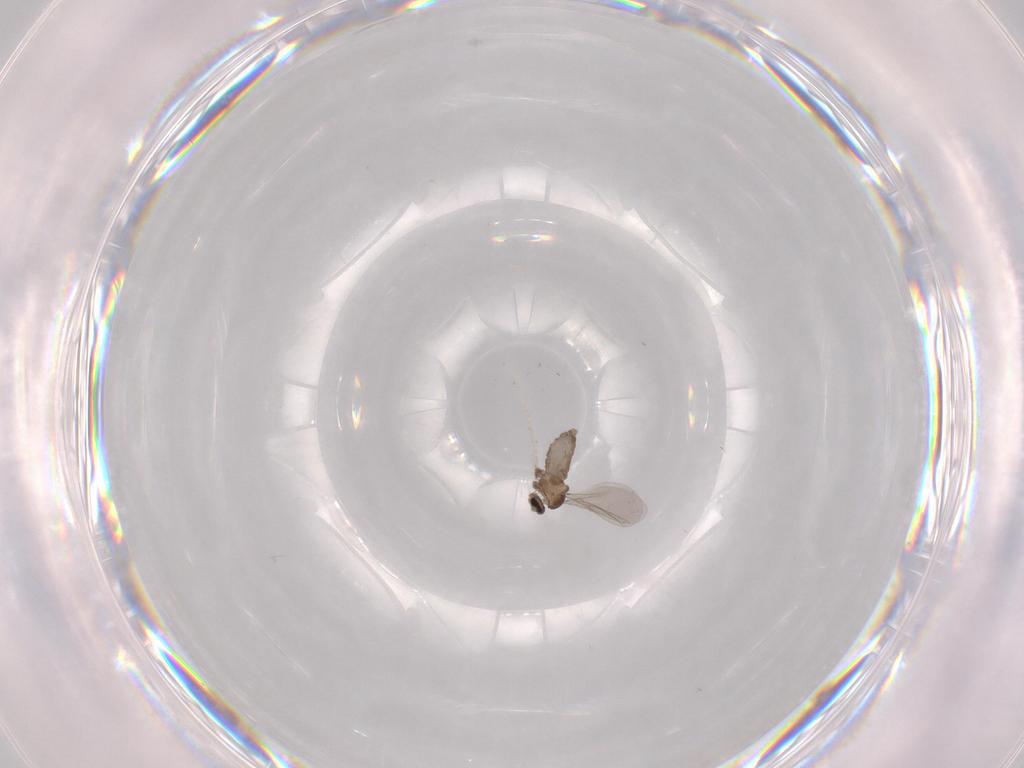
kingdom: Animalia
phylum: Arthropoda
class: Insecta
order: Diptera
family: Cecidomyiidae
